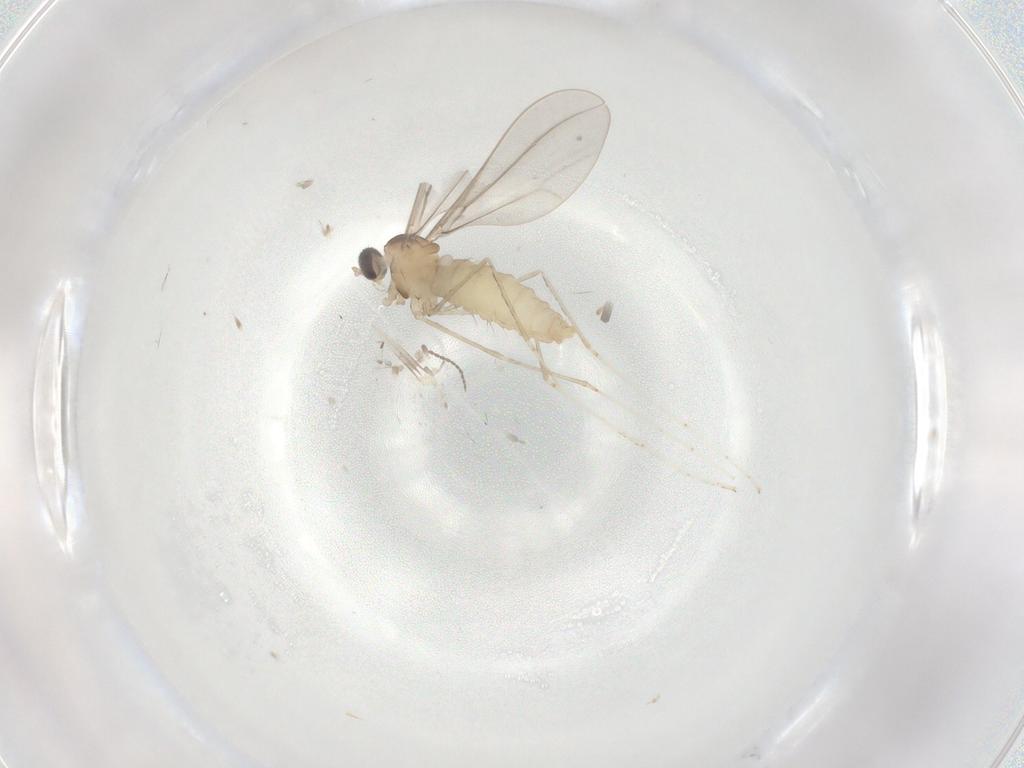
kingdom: Animalia
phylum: Arthropoda
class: Insecta
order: Diptera
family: Cecidomyiidae
